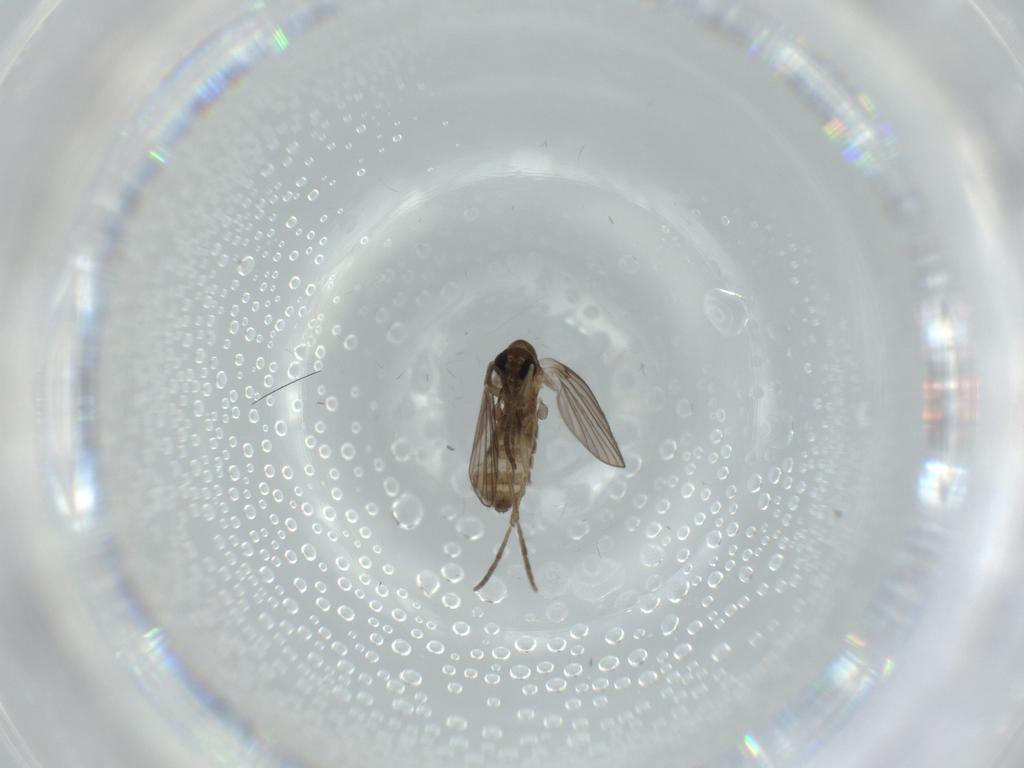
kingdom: Animalia
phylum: Arthropoda
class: Insecta
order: Diptera
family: Psychodidae
